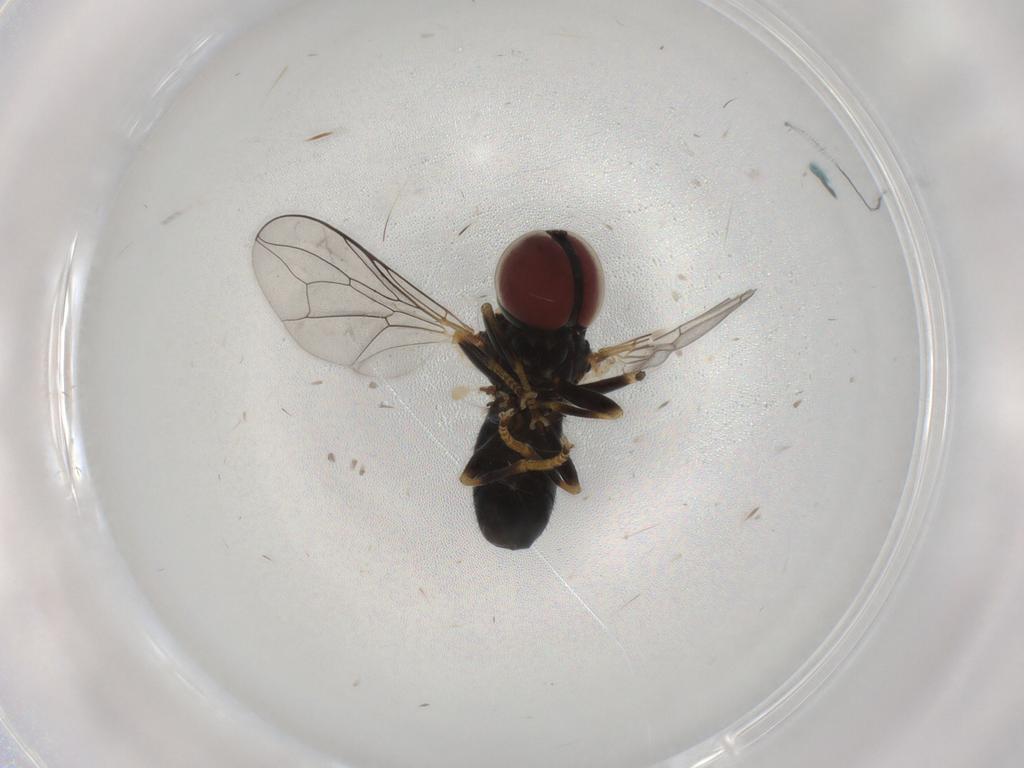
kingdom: Animalia
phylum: Arthropoda
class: Insecta
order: Diptera
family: Pipunculidae
